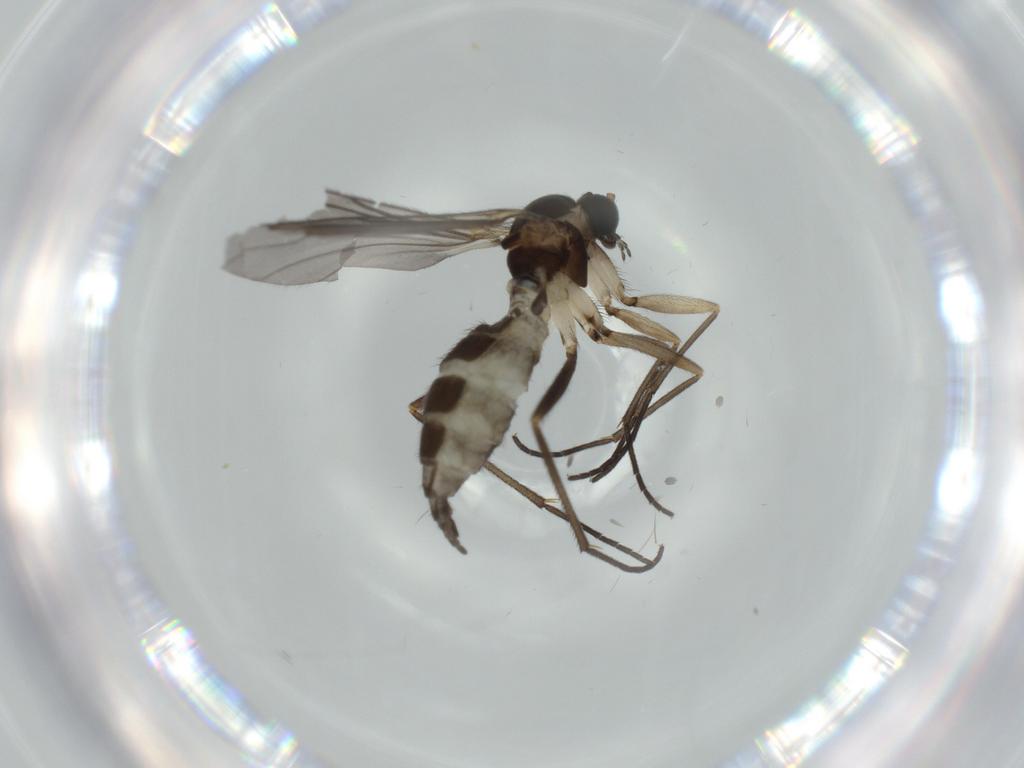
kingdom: Animalia
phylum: Arthropoda
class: Insecta
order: Diptera
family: Sciaridae
